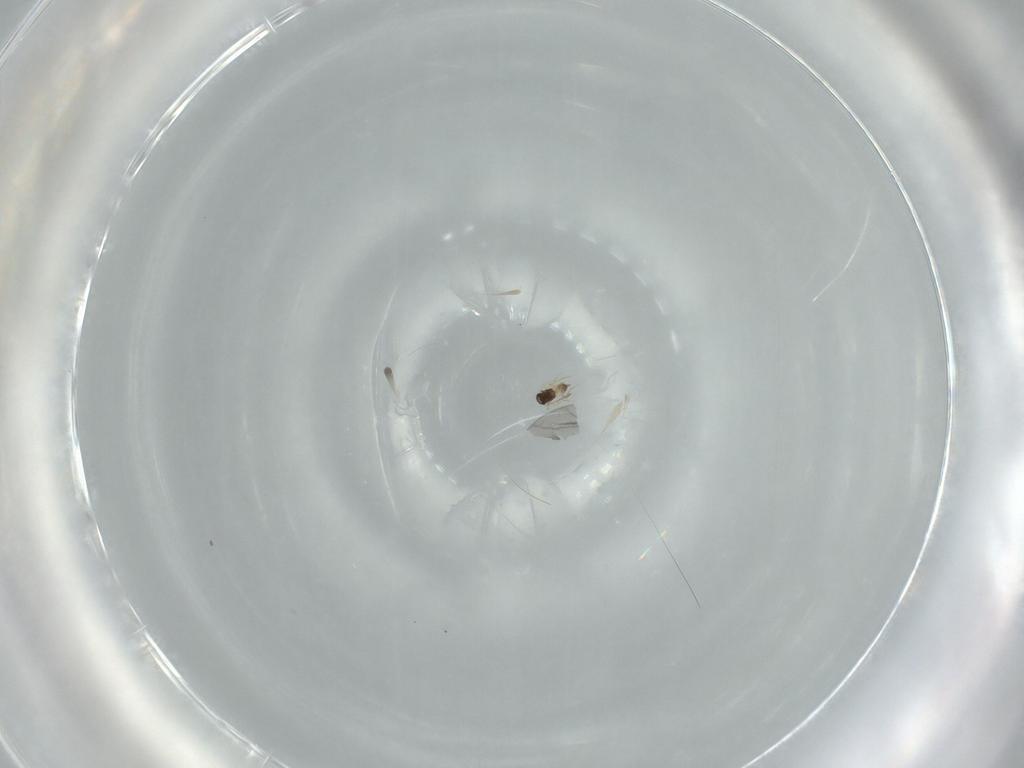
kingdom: Animalia
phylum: Arthropoda
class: Insecta
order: Hymenoptera
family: Mymaridae
